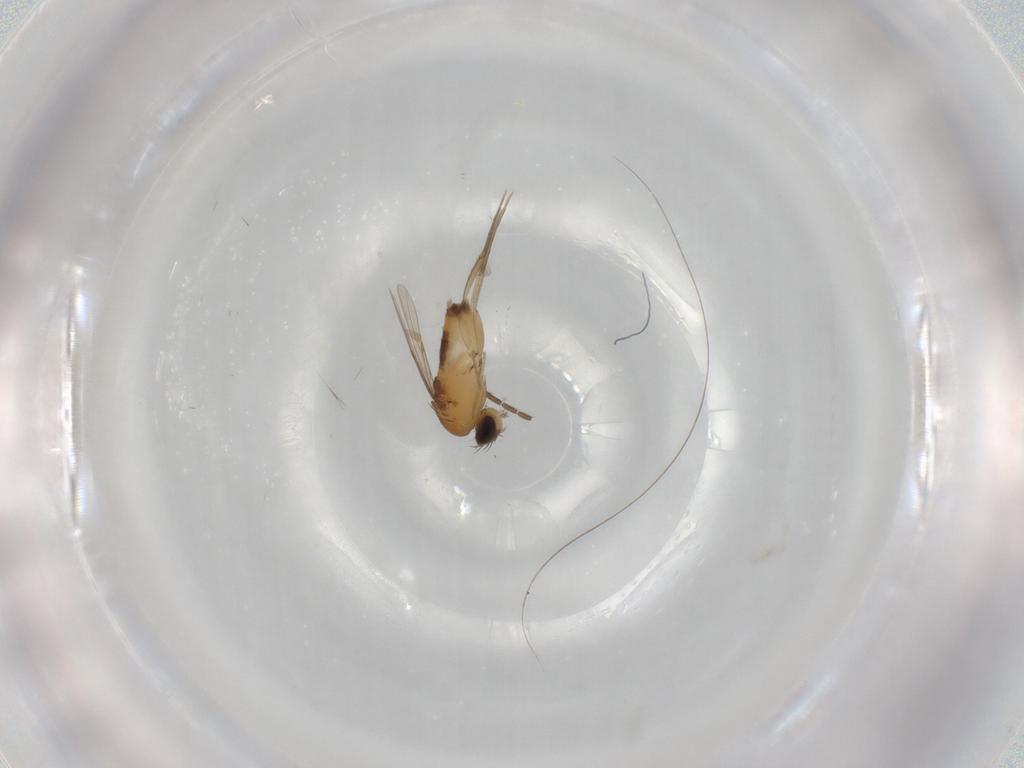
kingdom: Animalia
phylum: Arthropoda
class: Insecta
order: Diptera
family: Phoridae
